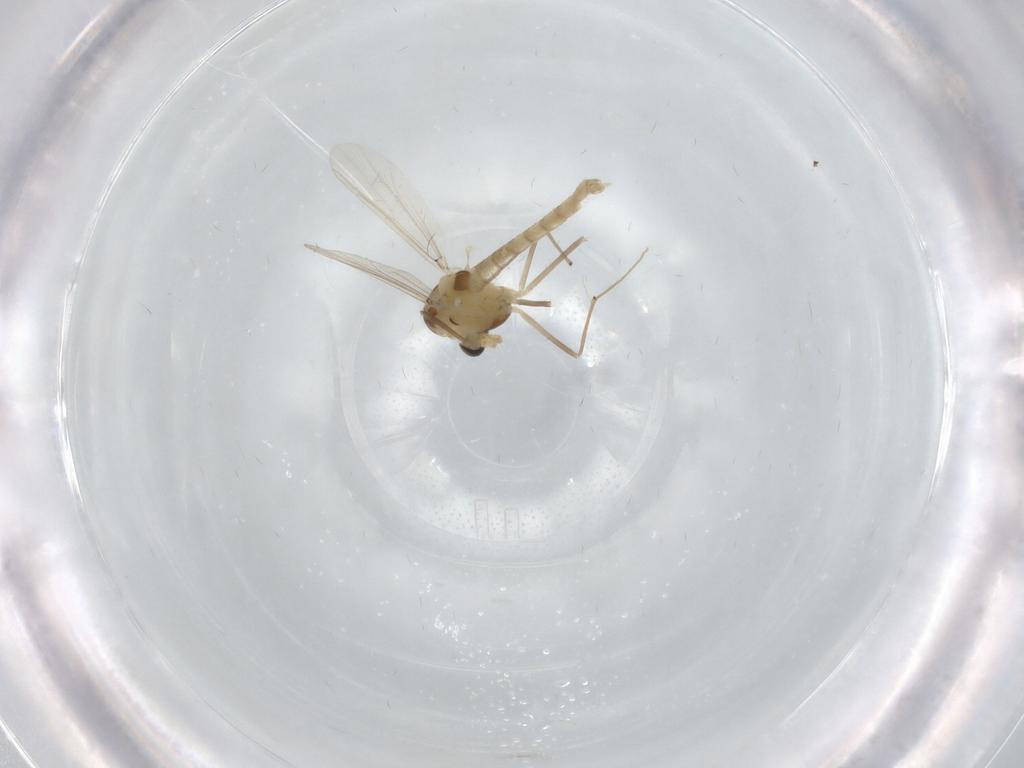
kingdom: Animalia
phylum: Arthropoda
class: Insecta
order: Diptera
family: Chironomidae
